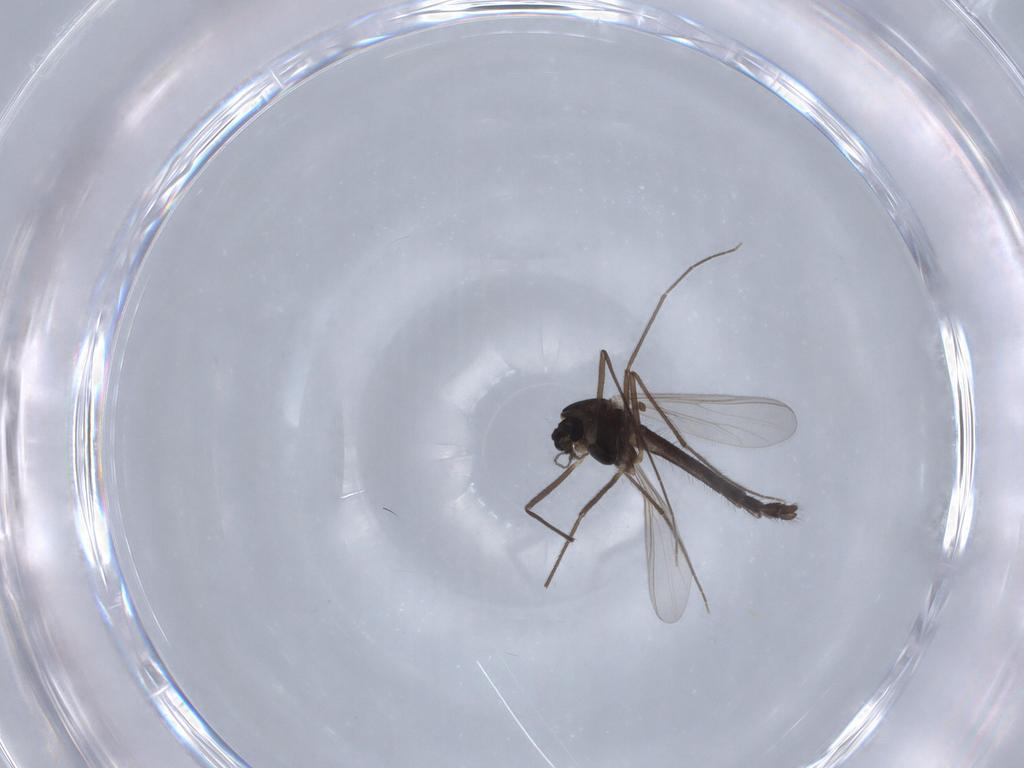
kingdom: Animalia
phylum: Arthropoda
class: Insecta
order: Diptera
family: Chironomidae
